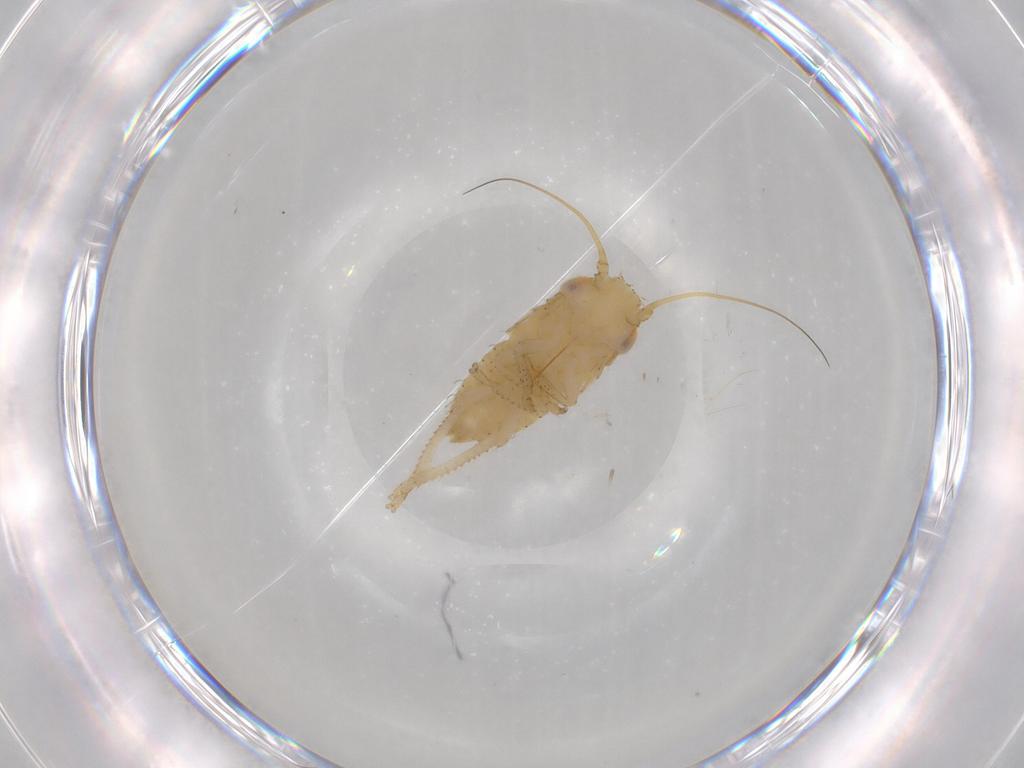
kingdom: Animalia
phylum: Arthropoda
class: Insecta
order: Hemiptera
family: Cicadellidae
